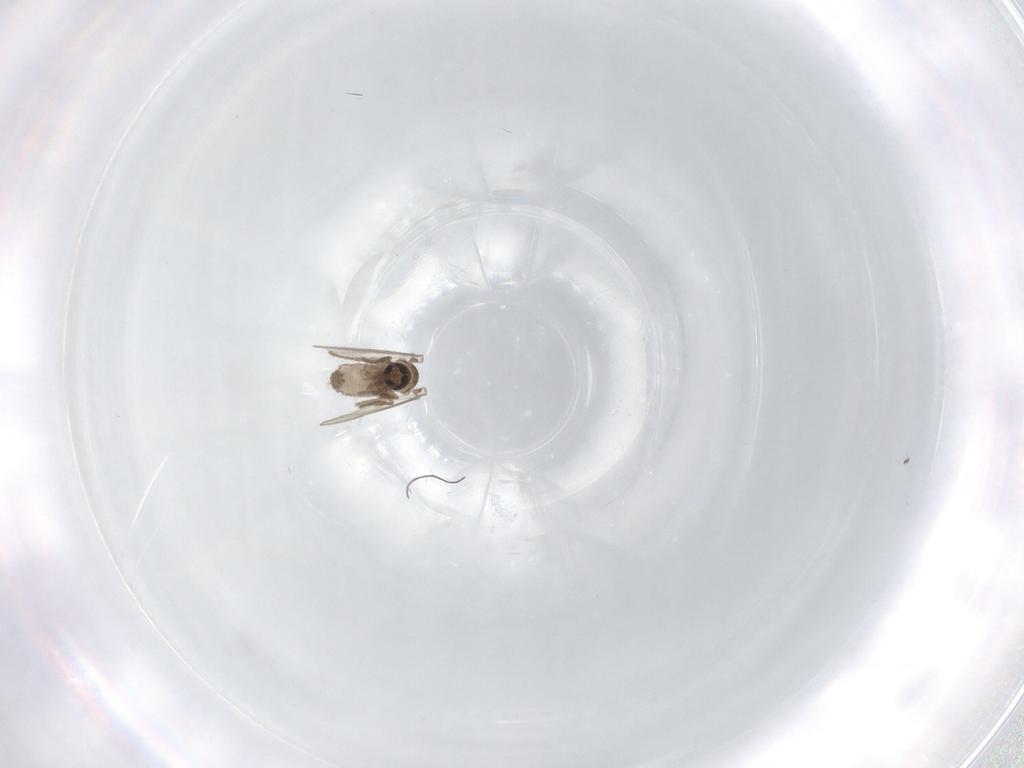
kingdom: Animalia
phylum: Arthropoda
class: Insecta
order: Diptera
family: Psychodidae
